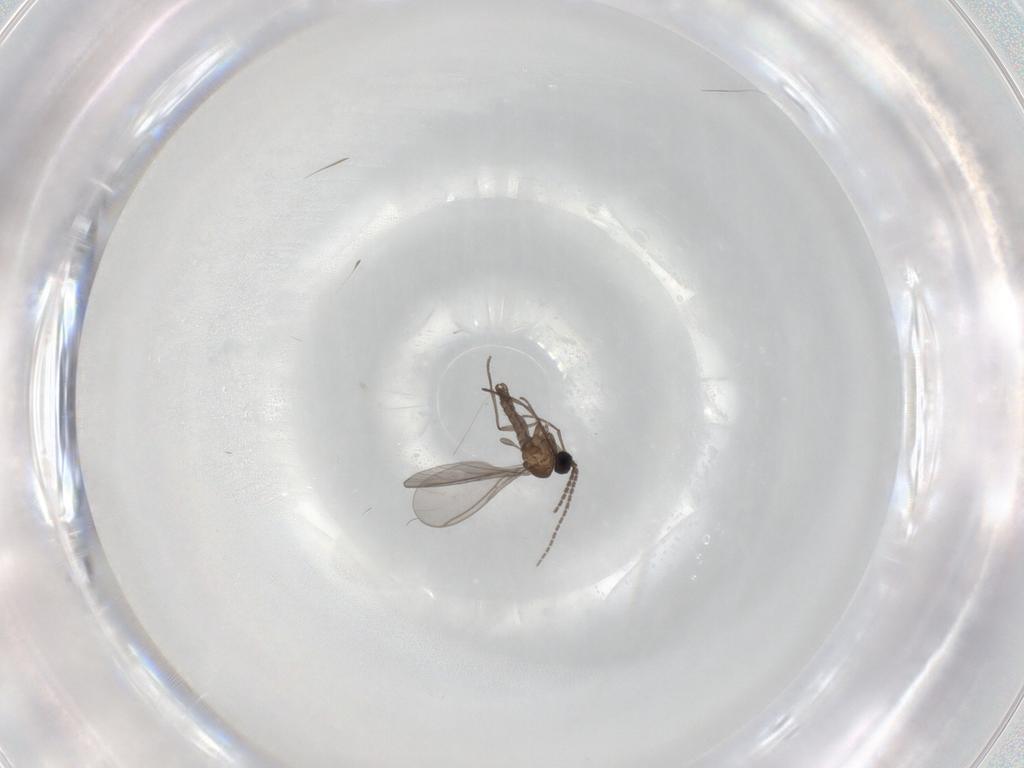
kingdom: Animalia
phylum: Arthropoda
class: Insecta
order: Diptera
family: Sciaridae
